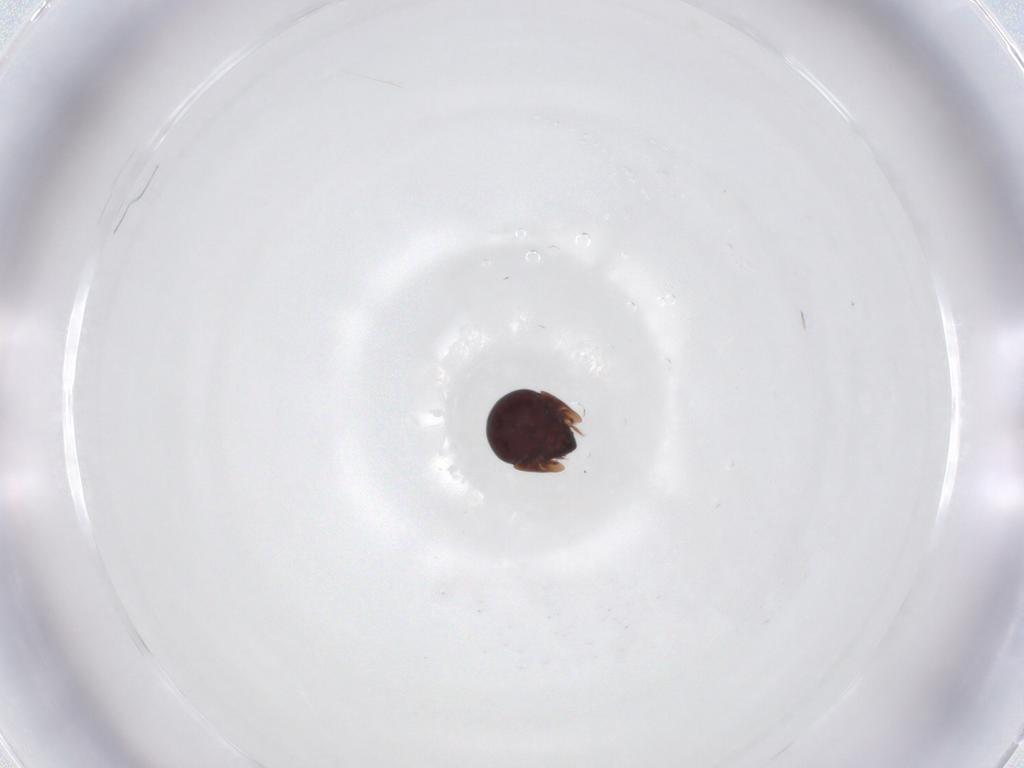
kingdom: Animalia
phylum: Arthropoda
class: Arachnida
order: Sarcoptiformes
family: Galumnidae
